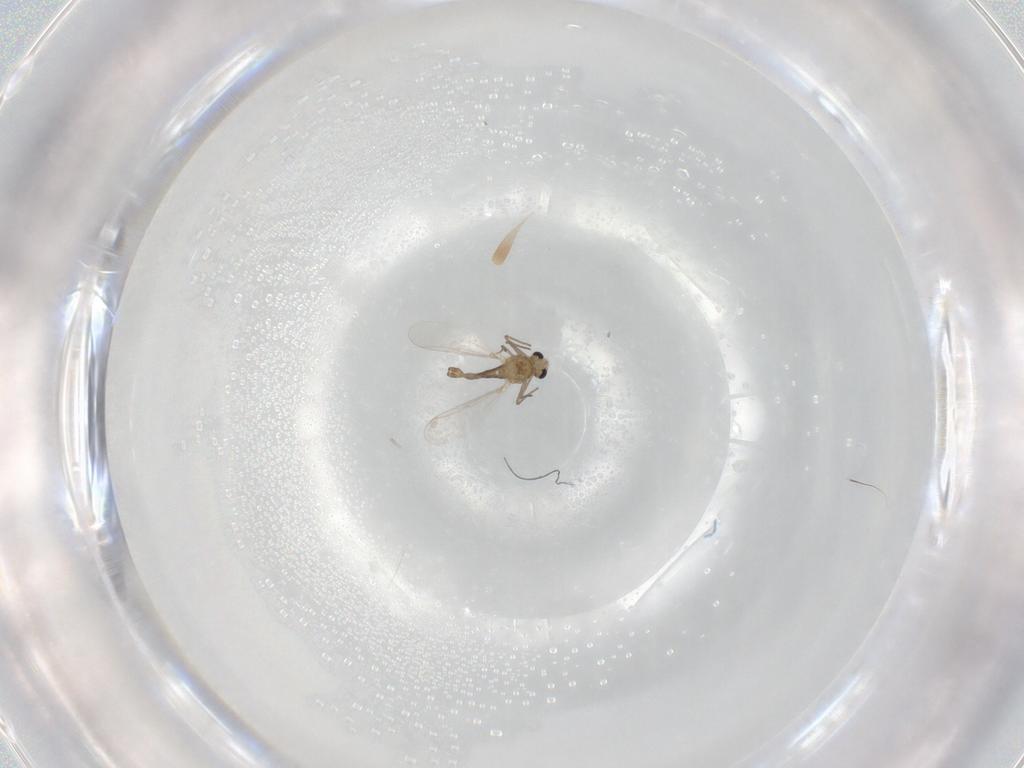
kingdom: Animalia
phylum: Arthropoda
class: Insecta
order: Diptera
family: Chironomidae
